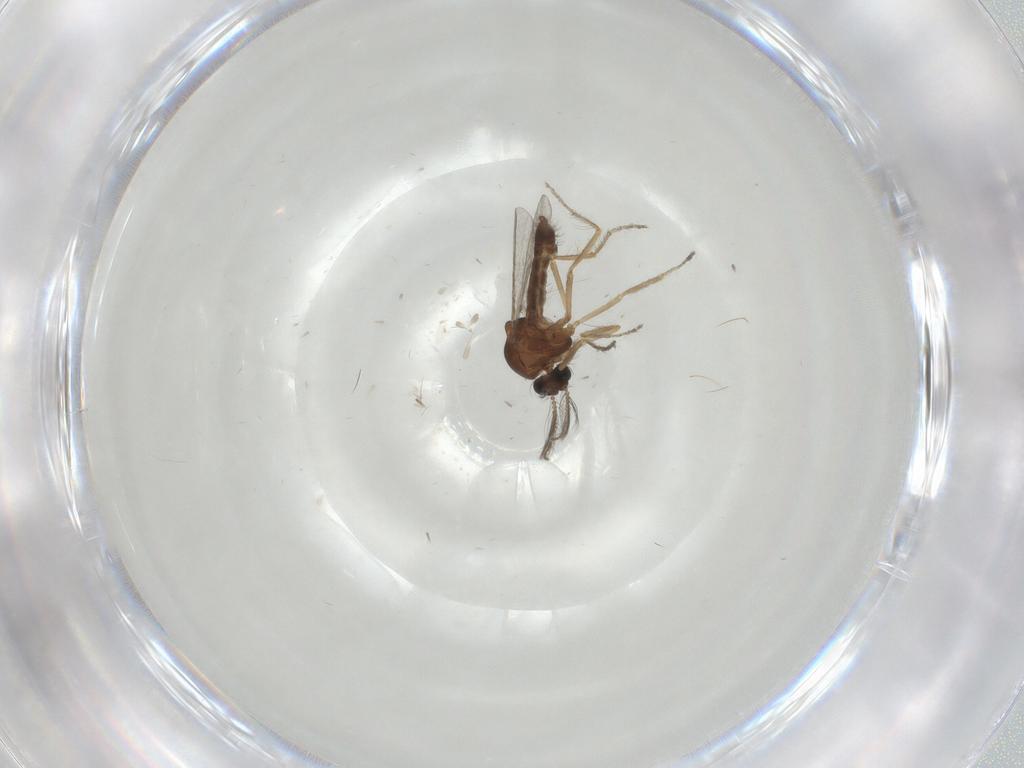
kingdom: Animalia
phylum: Arthropoda
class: Insecta
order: Diptera
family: Ceratopogonidae
